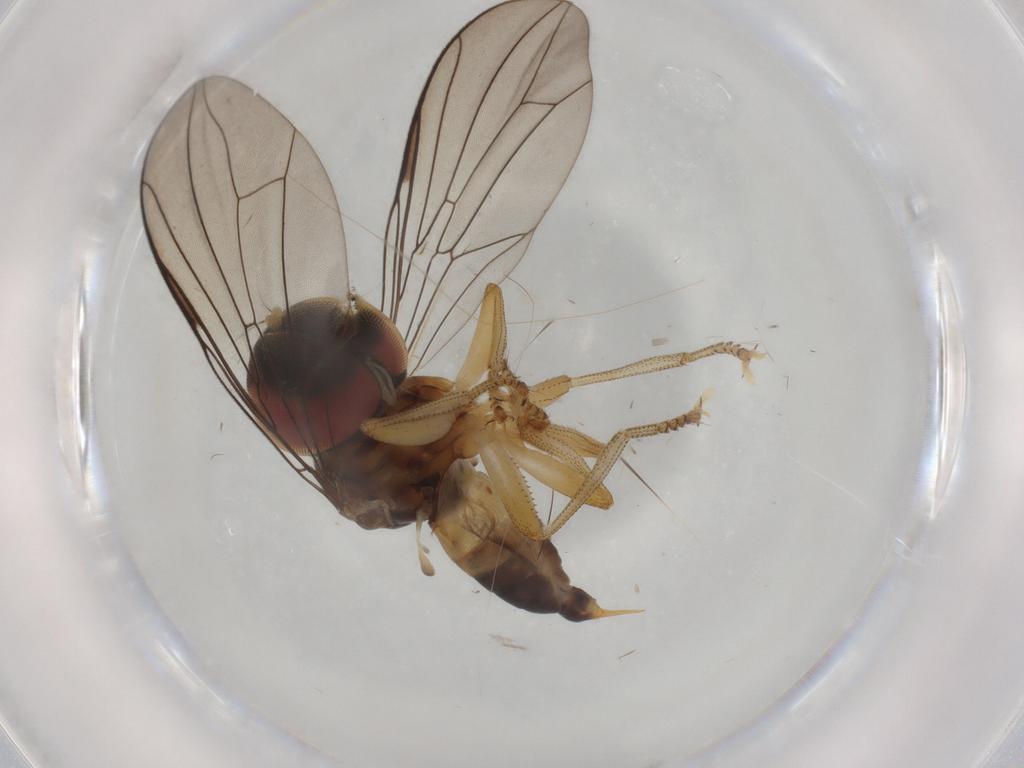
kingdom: Animalia
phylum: Arthropoda
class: Insecta
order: Diptera
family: Pipunculidae
